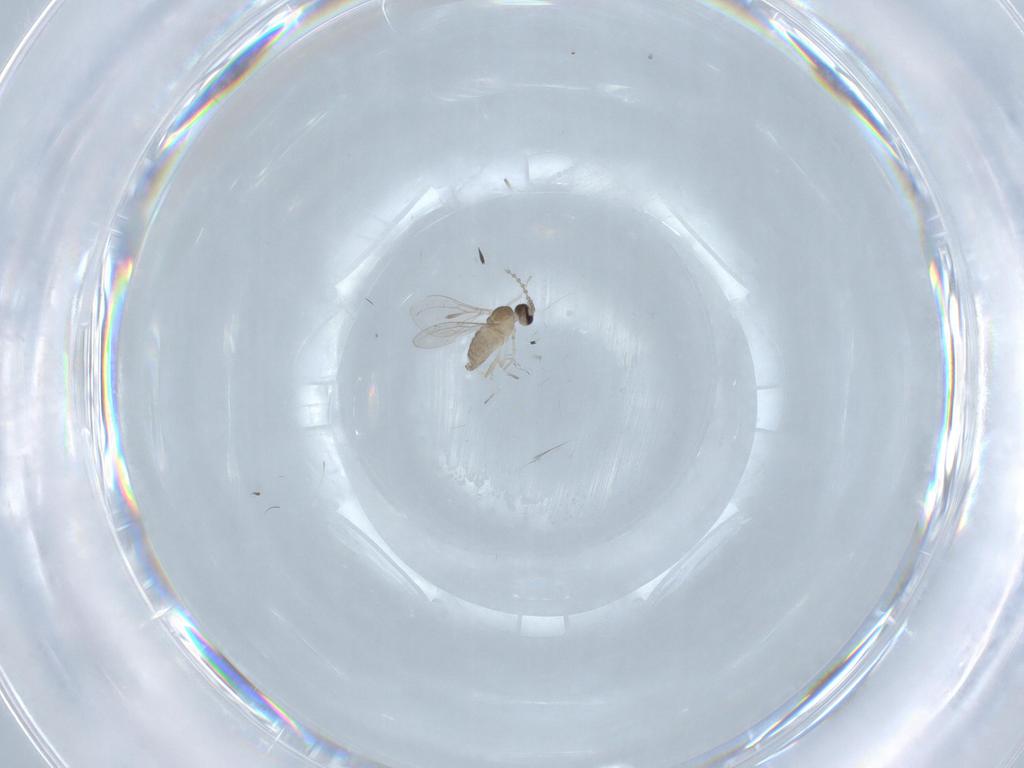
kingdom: Animalia
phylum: Arthropoda
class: Insecta
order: Diptera
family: Cecidomyiidae
